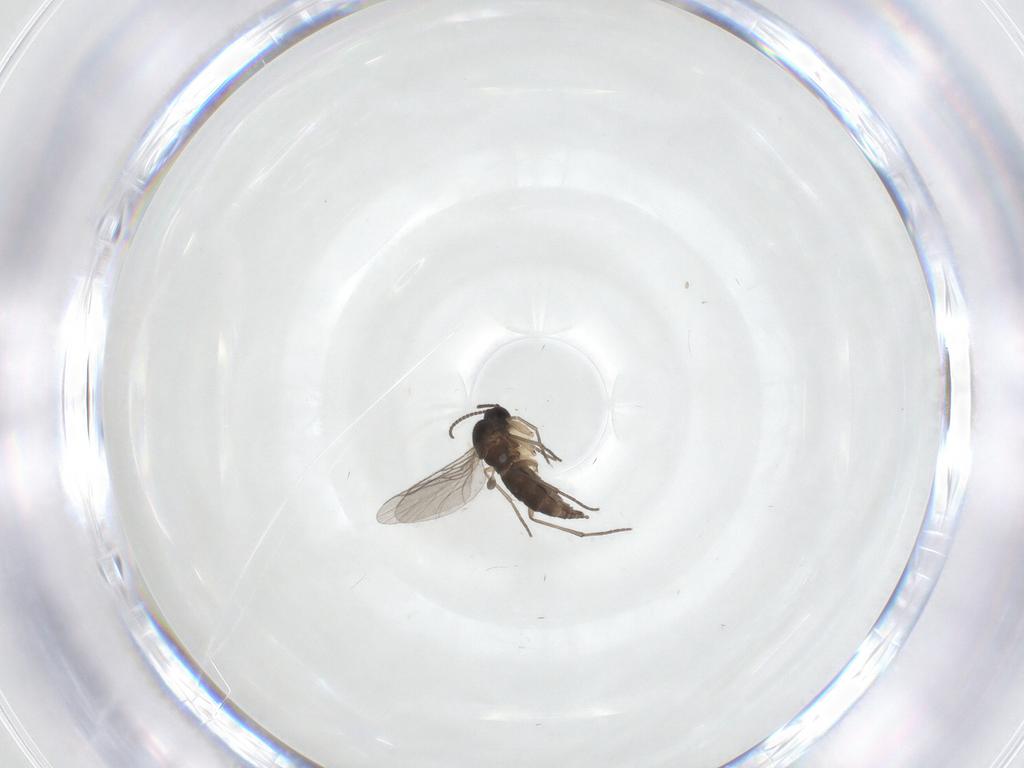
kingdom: Animalia
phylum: Arthropoda
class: Insecta
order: Diptera
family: Sciaridae
